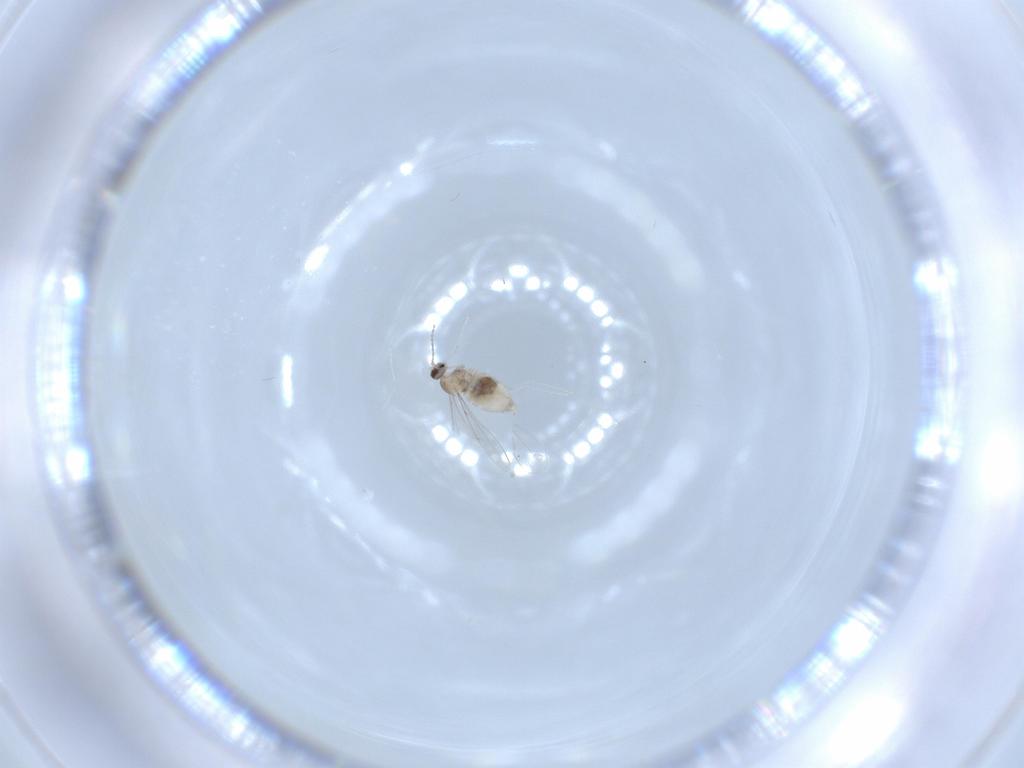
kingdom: Animalia
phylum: Arthropoda
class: Insecta
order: Diptera
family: Cecidomyiidae
